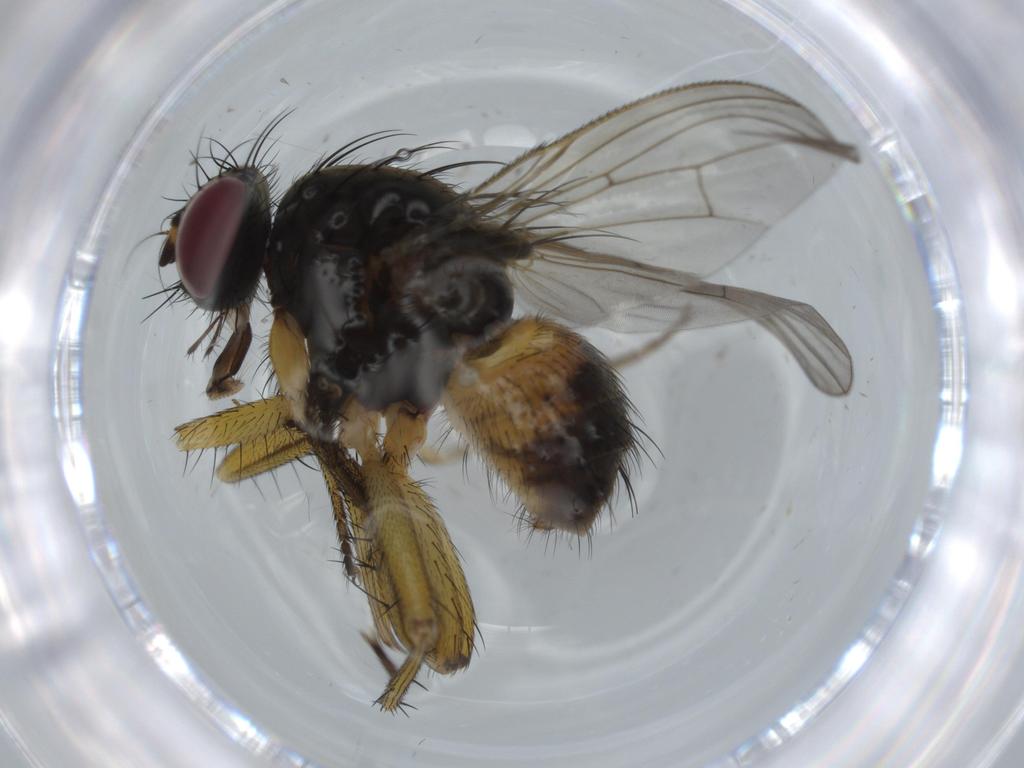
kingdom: Animalia
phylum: Arthropoda
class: Insecta
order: Diptera
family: Muscidae
